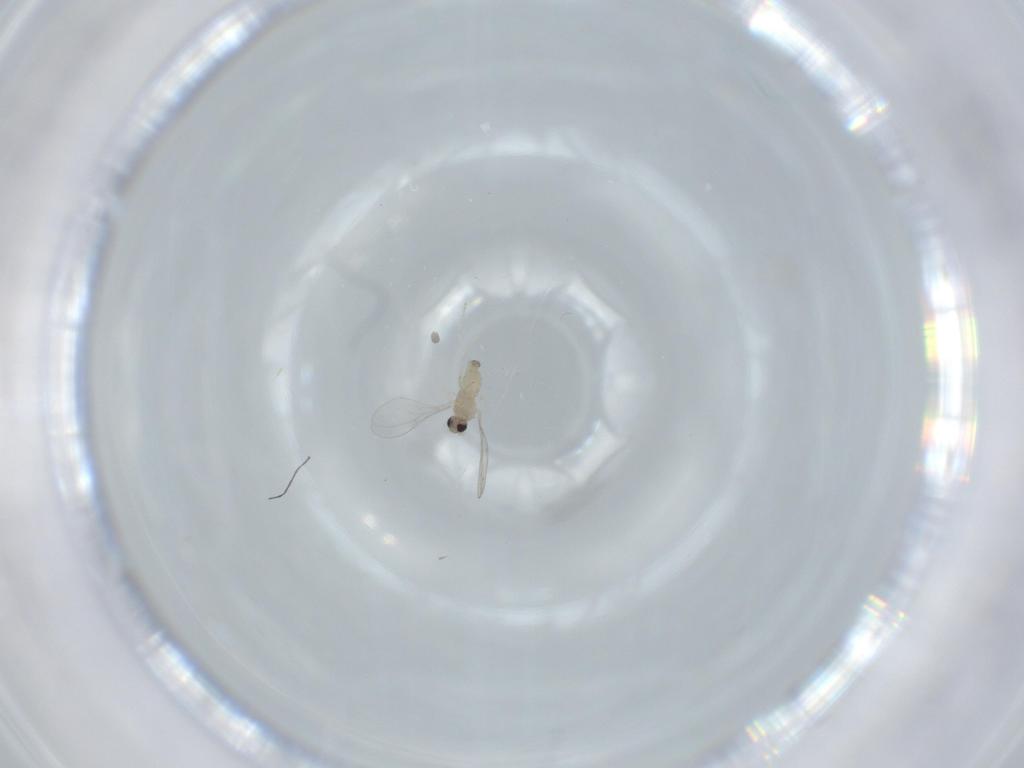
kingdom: Animalia
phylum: Arthropoda
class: Insecta
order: Diptera
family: Cecidomyiidae
